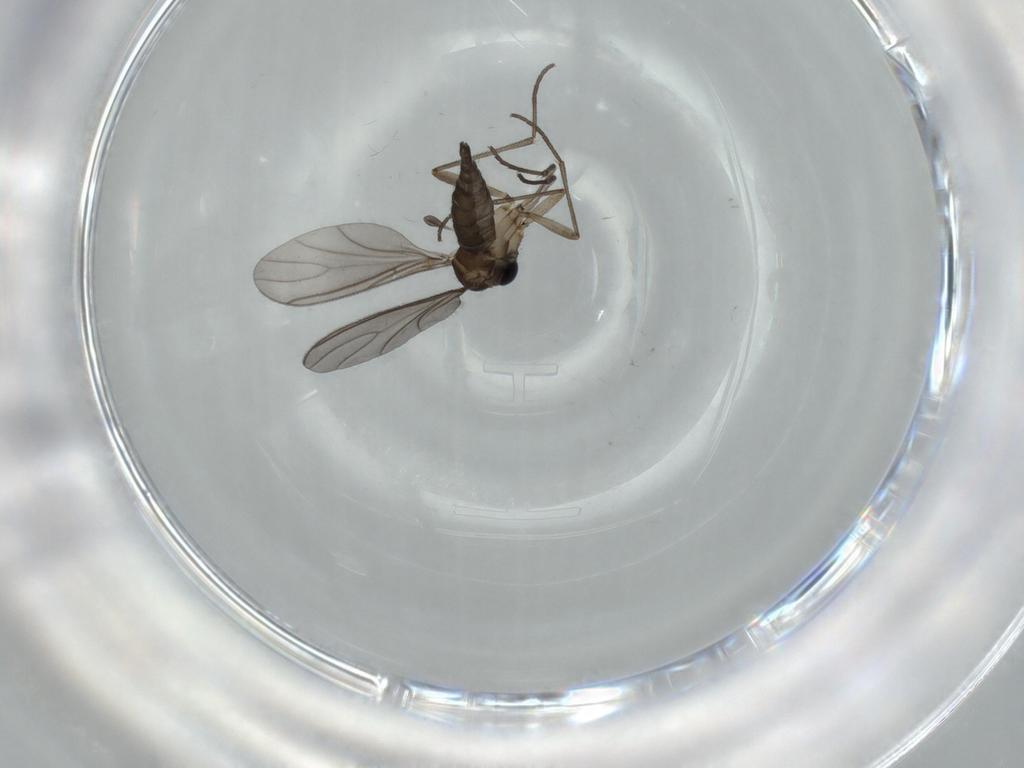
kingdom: Animalia
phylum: Arthropoda
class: Insecta
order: Diptera
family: Sciaridae
